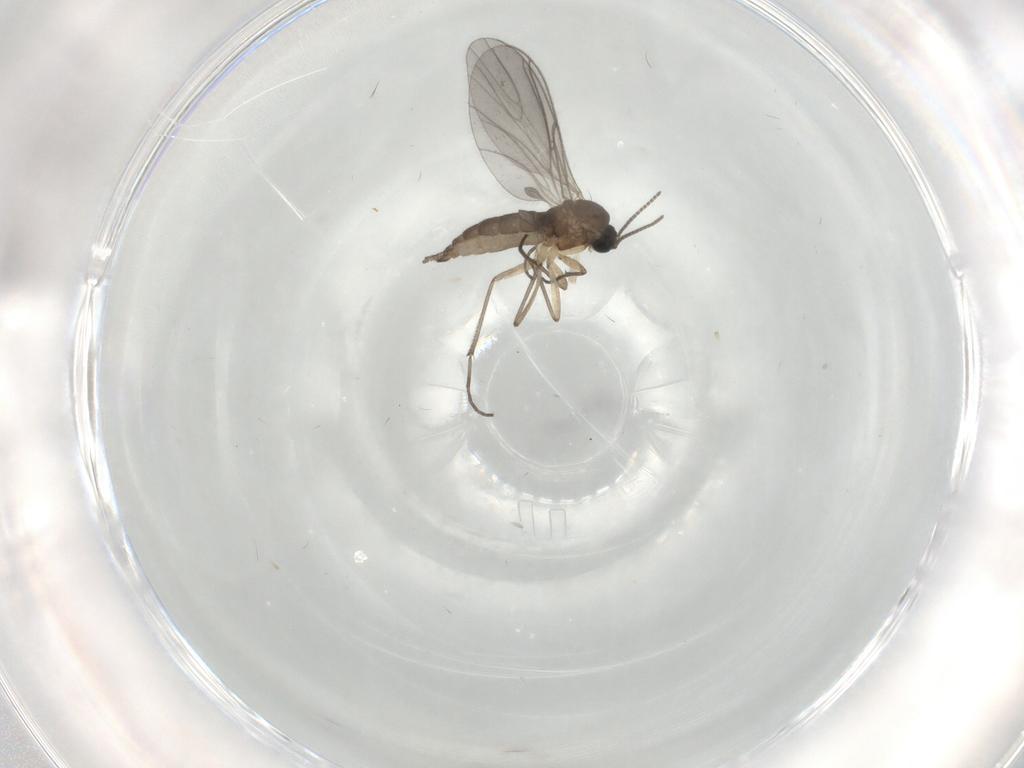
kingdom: Animalia
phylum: Arthropoda
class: Insecta
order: Diptera
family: Sciaridae
